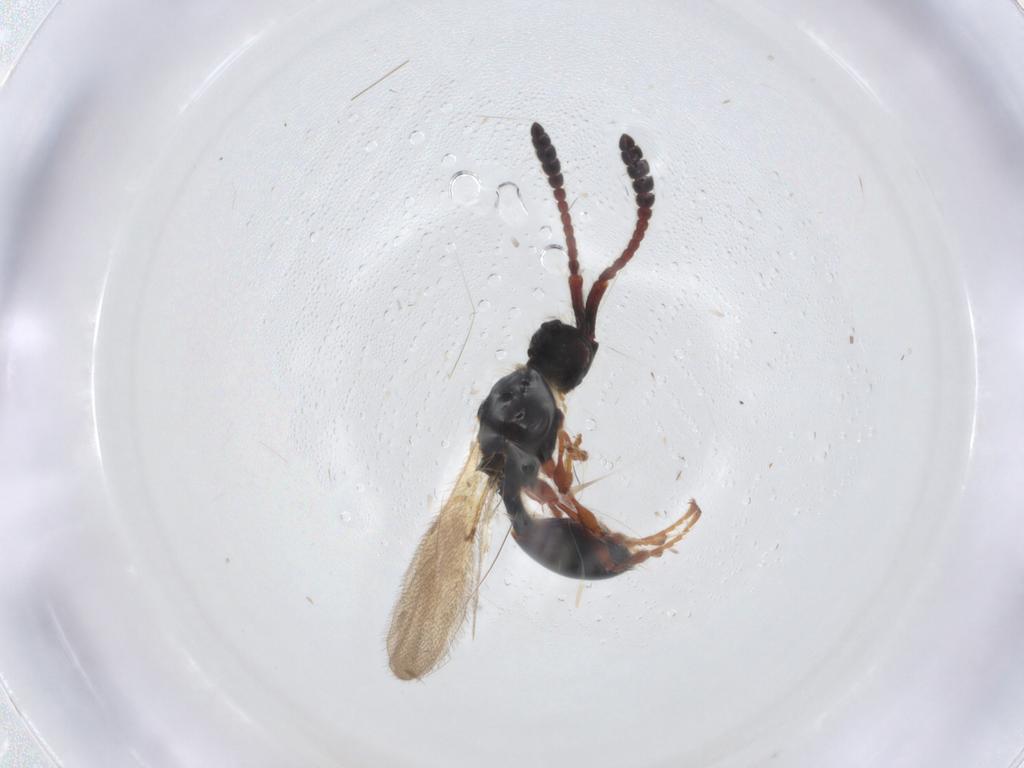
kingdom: Animalia
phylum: Arthropoda
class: Insecta
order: Hymenoptera
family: Diapriidae
